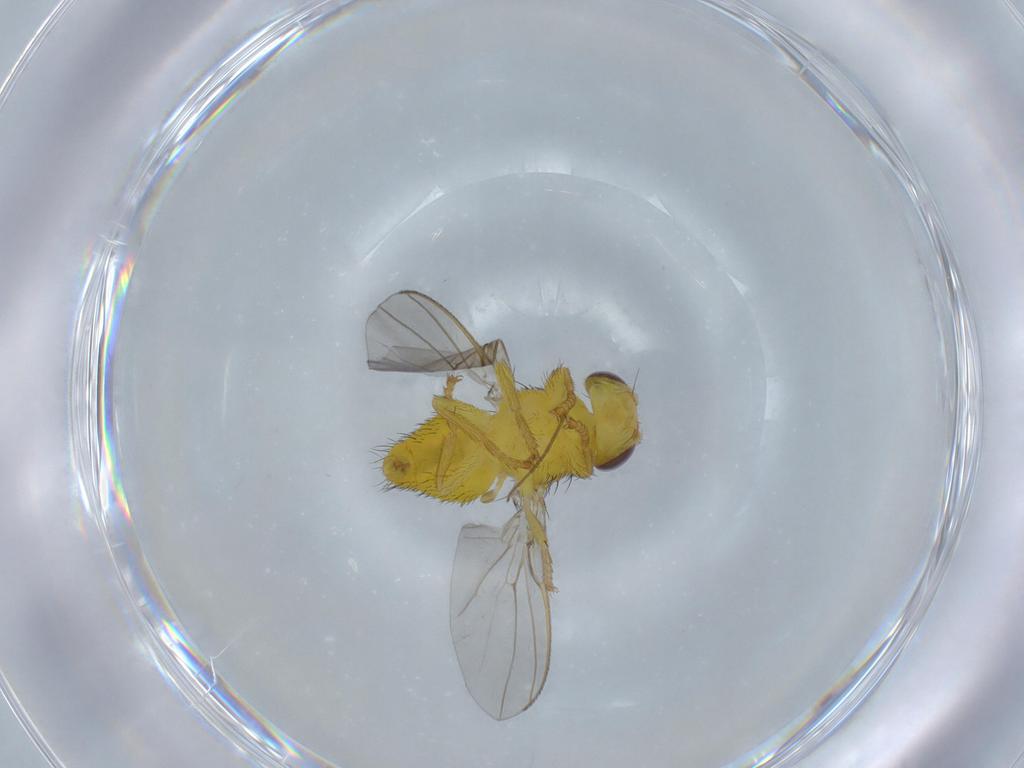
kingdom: Animalia
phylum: Arthropoda
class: Insecta
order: Diptera
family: Fergusoninidae
